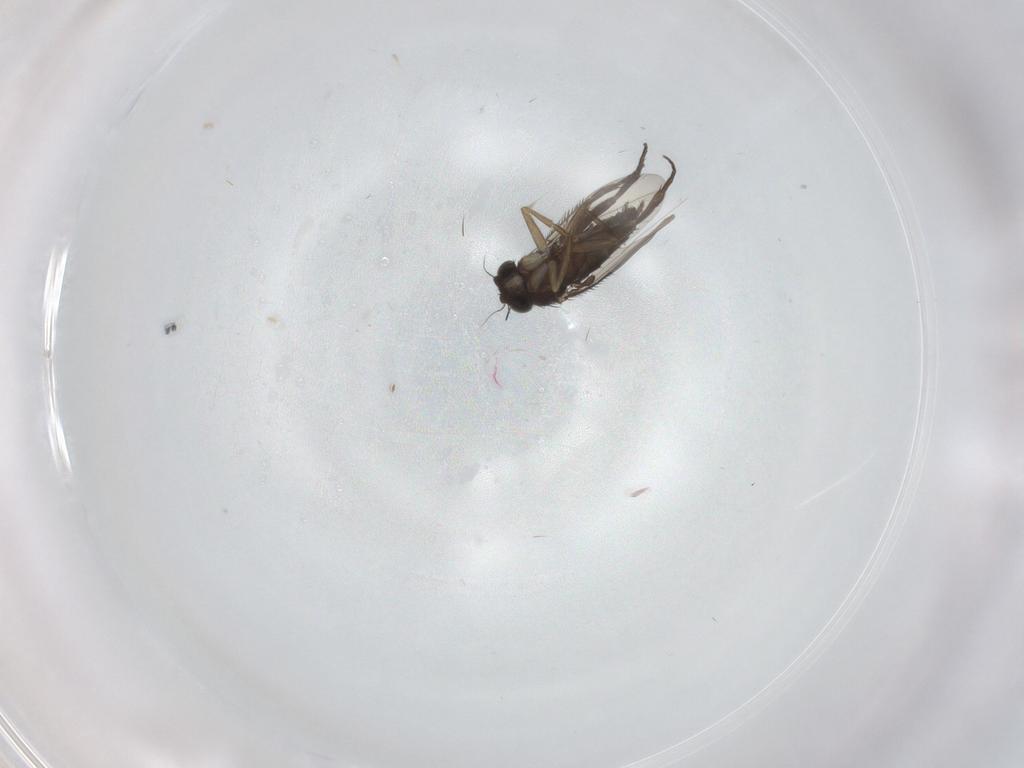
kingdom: Animalia
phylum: Arthropoda
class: Insecta
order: Diptera
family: Phoridae
